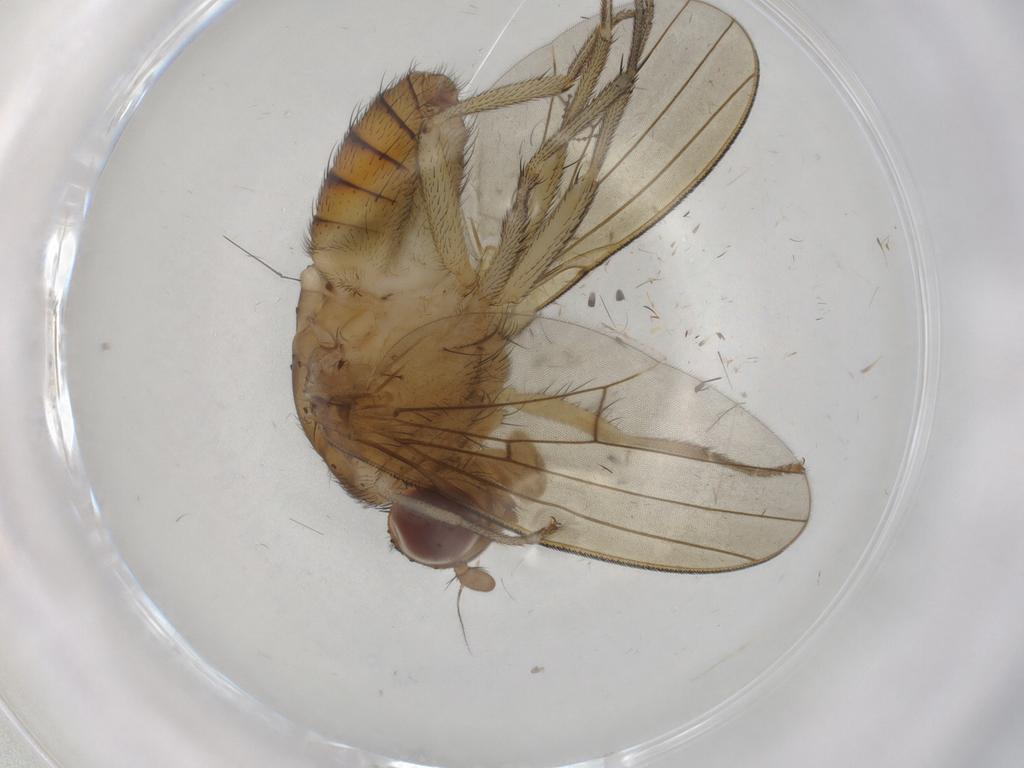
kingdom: Animalia
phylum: Arthropoda
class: Insecta
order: Diptera
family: Cecidomyiidae
